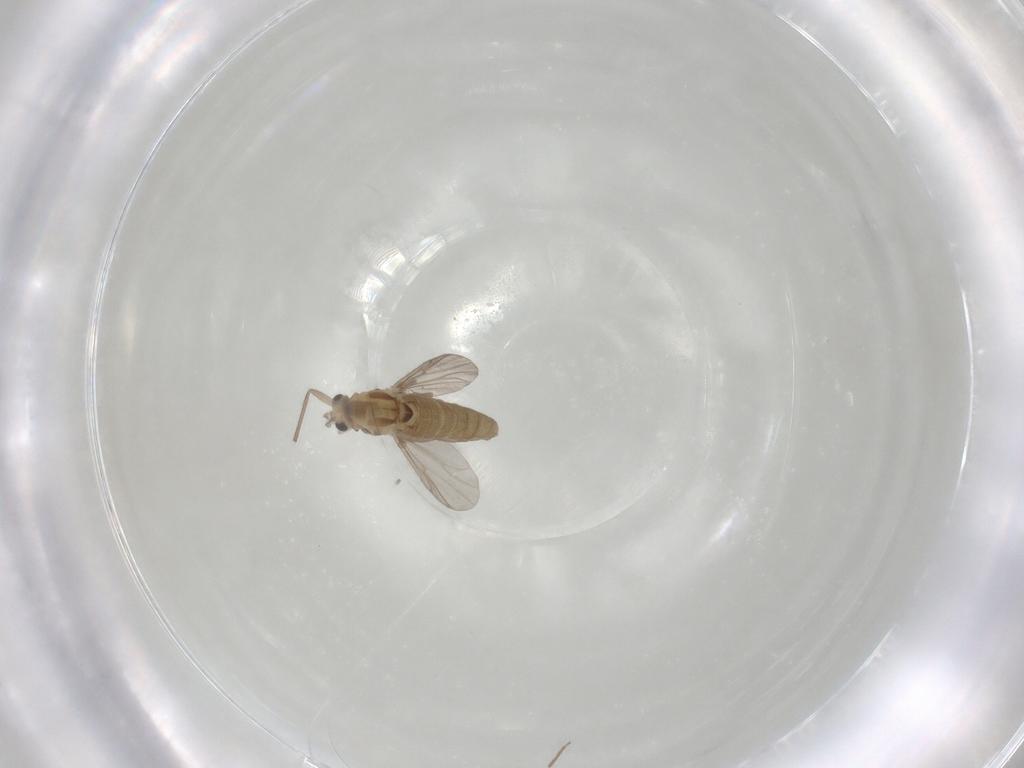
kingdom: Animalia
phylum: Arthropoda
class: Insecta
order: Diptera
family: Chironomidae
